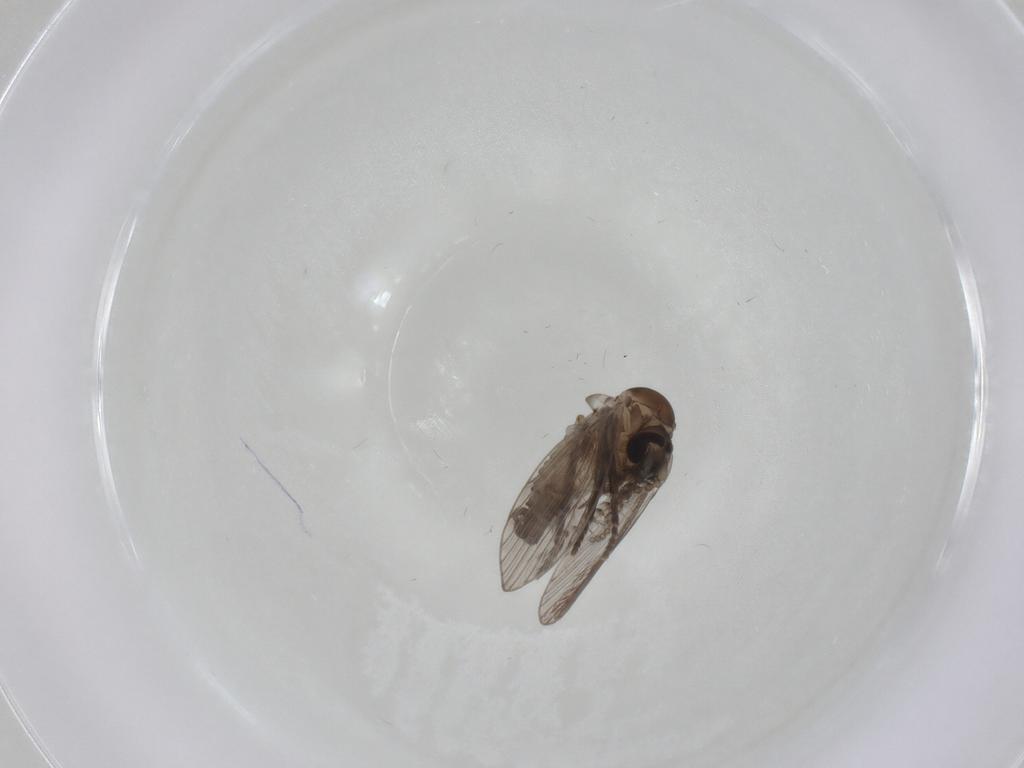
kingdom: Animalia
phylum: Arthropoda
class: Insecta
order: Diptera
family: Psychodidae
